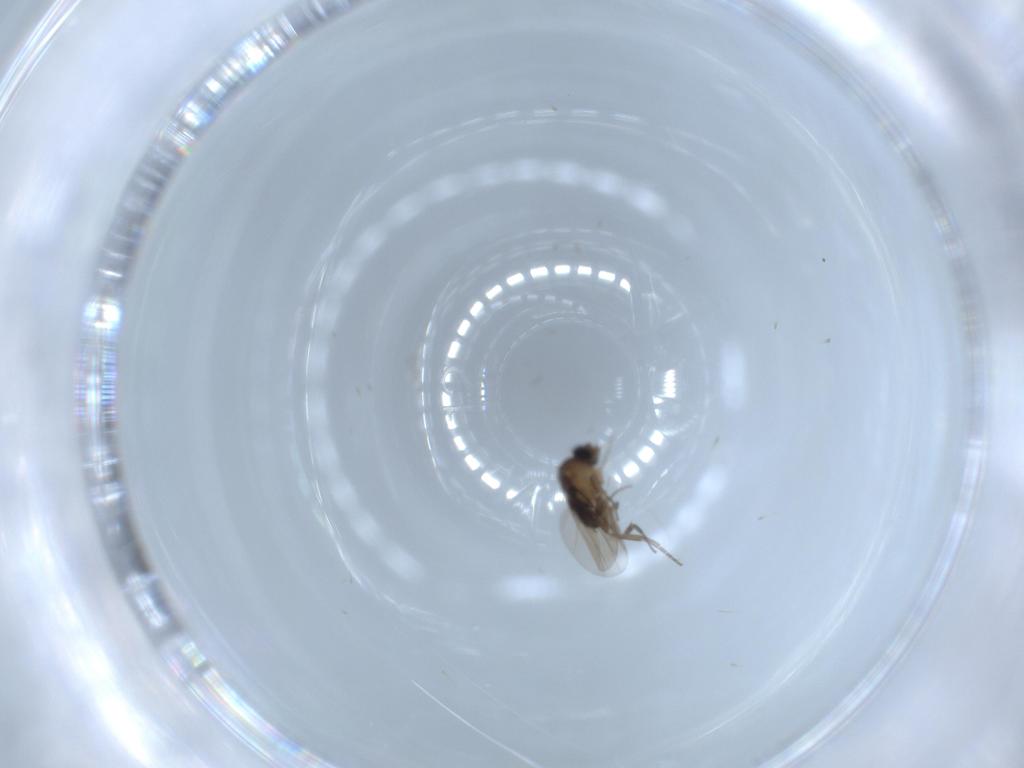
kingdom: Animalia
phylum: Arthropoda
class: Insecta
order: Diptera
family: Phoridae
